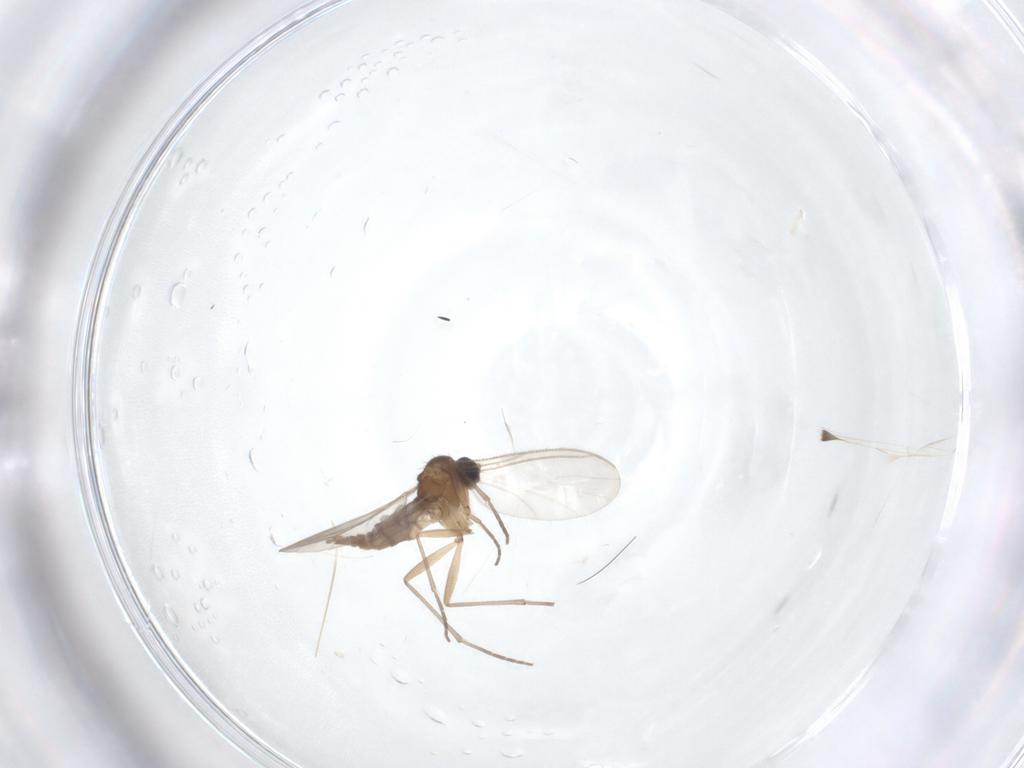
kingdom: Animalia
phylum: Arthropoda
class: Insecta
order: Diptera
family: Sciaridae
